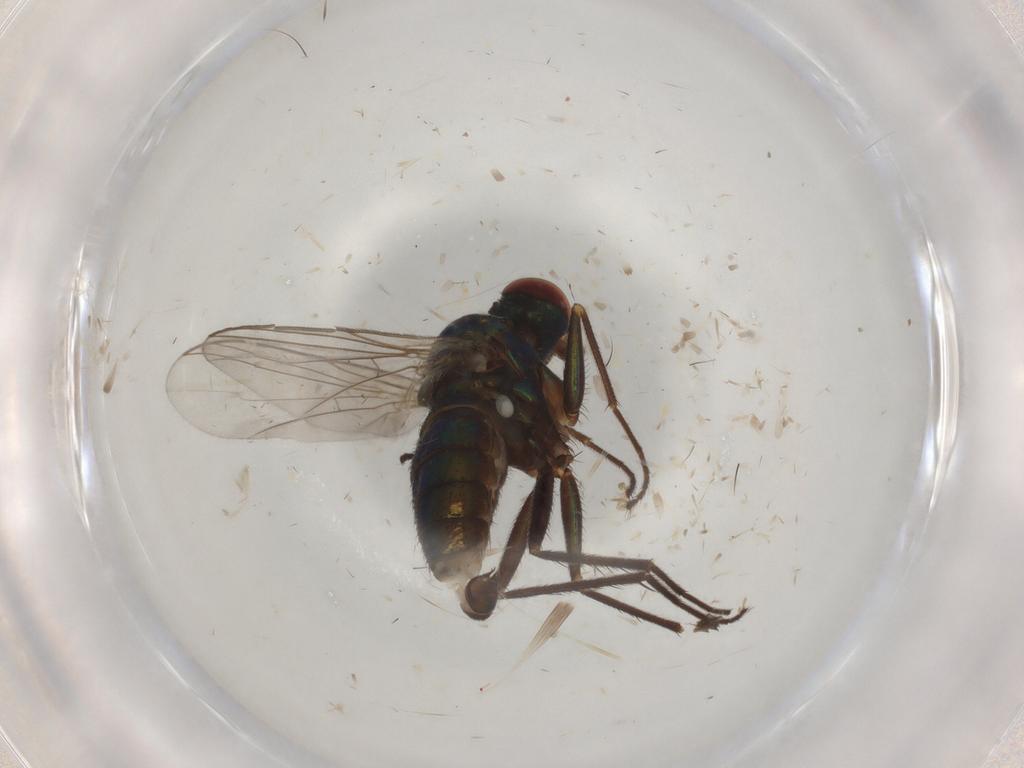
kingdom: Animalia
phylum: Arthropoda
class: Insecta
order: Diptera
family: Dolichopodidae
